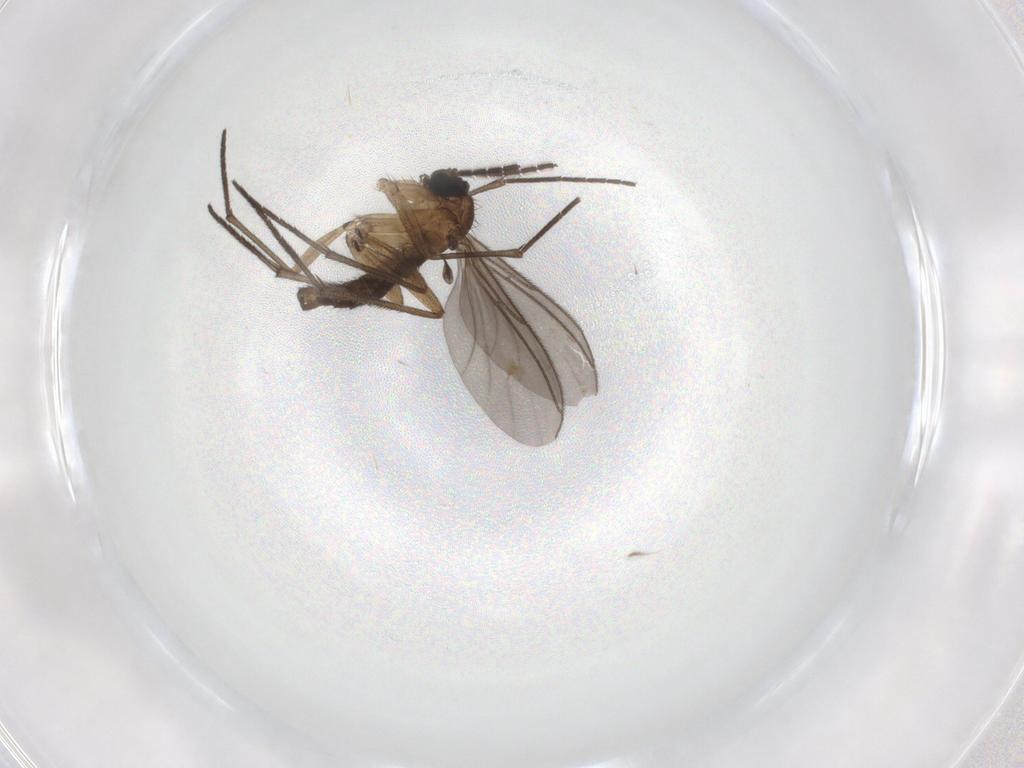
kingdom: Animalia
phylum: Arthropoda
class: Insecta
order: Diptera
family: Sciaridae
